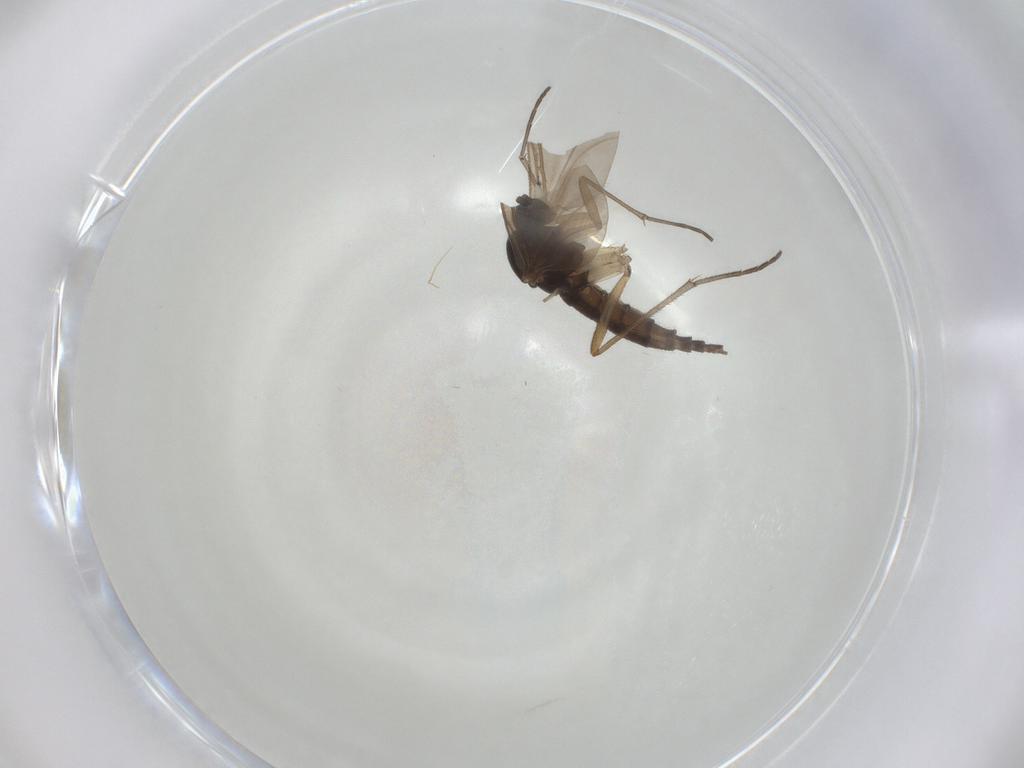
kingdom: Animalia
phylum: Arthropoda
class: Insecta
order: Diptera
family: Sciaridae
